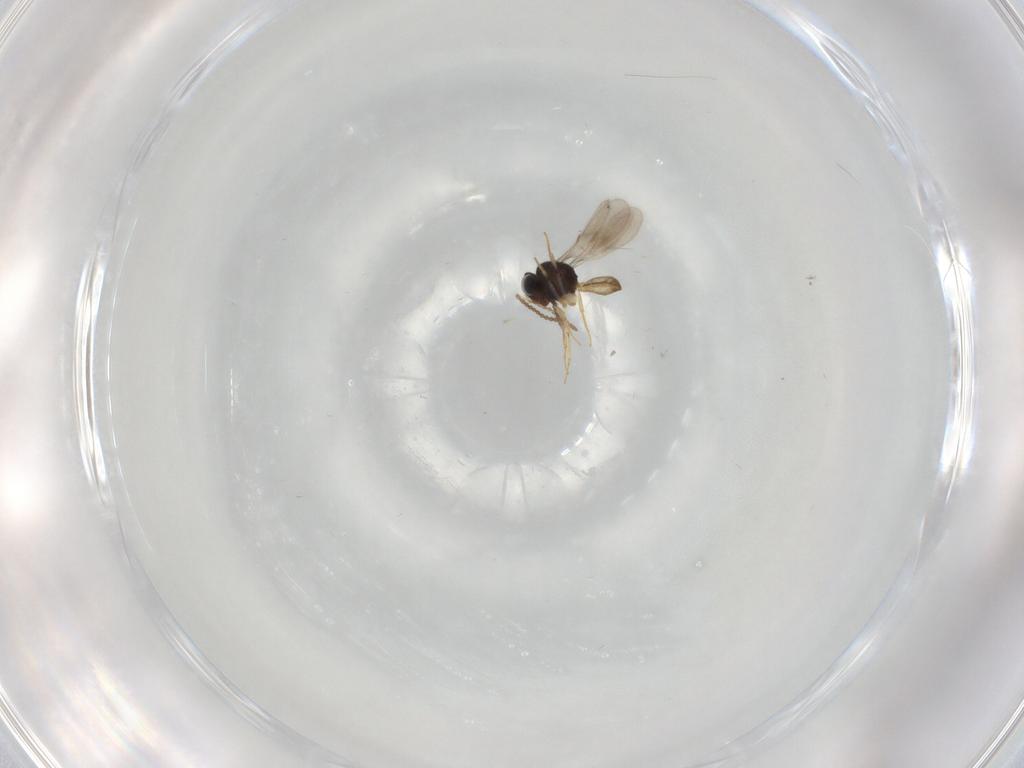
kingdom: Animalia
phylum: Arthropoda
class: Insecta
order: Hymenoptera
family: Scelionidae
